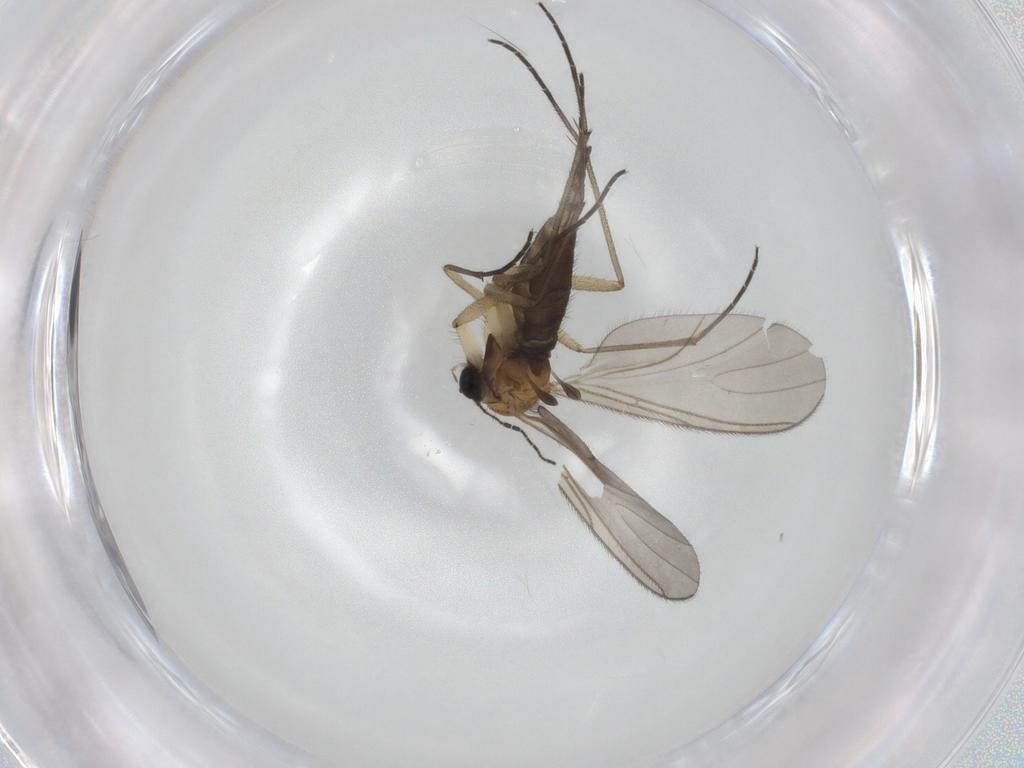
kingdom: Animalia
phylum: Arthropoda
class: Insecta
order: Diptera
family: Sciaridae
